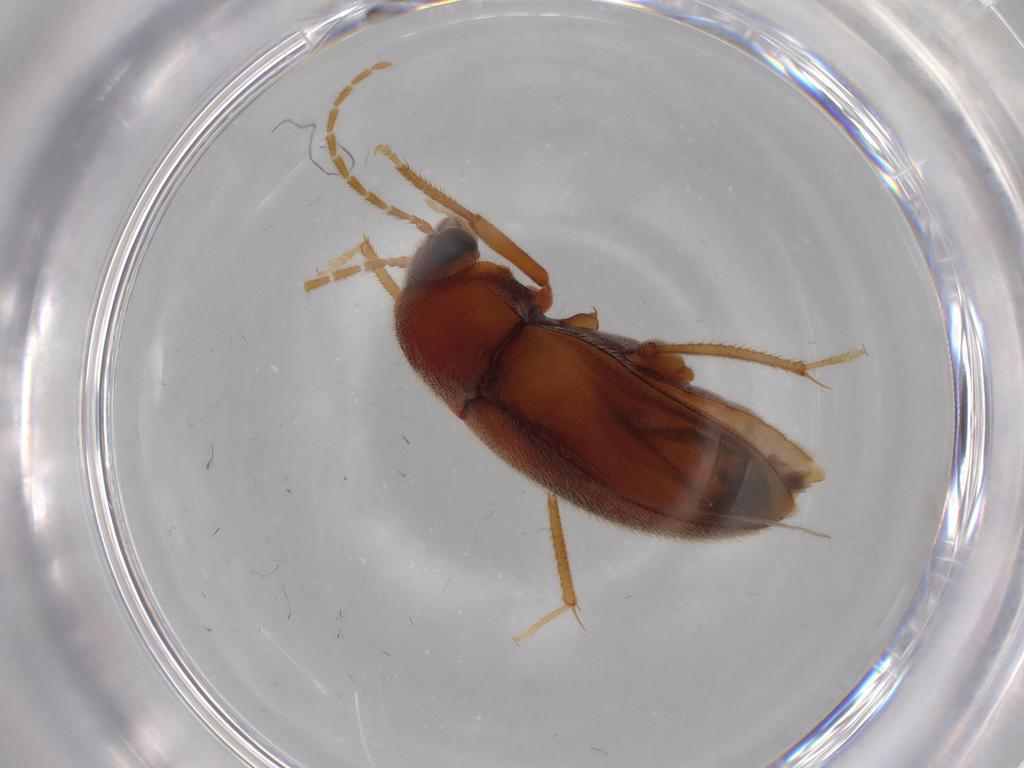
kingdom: Animalia
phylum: Arthropoda
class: Insecta
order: Coleoptera
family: Ptilodactylidae
